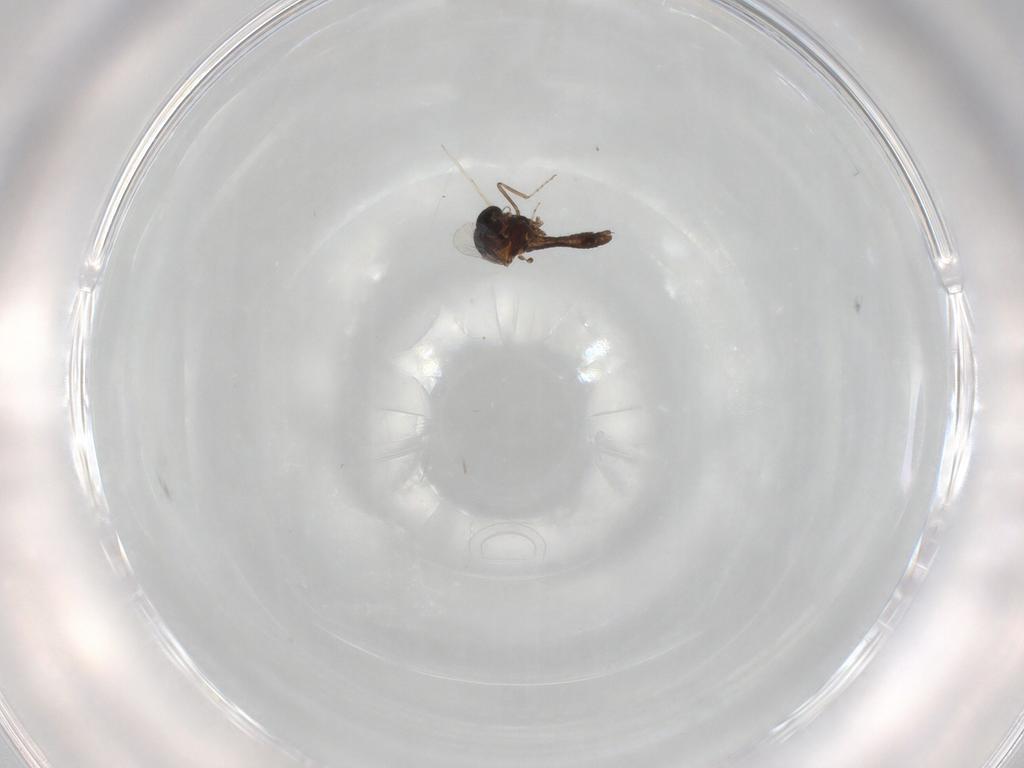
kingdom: Animalia
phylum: Arthropoda
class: Insecta
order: Diptera
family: Ceratopogonidae
